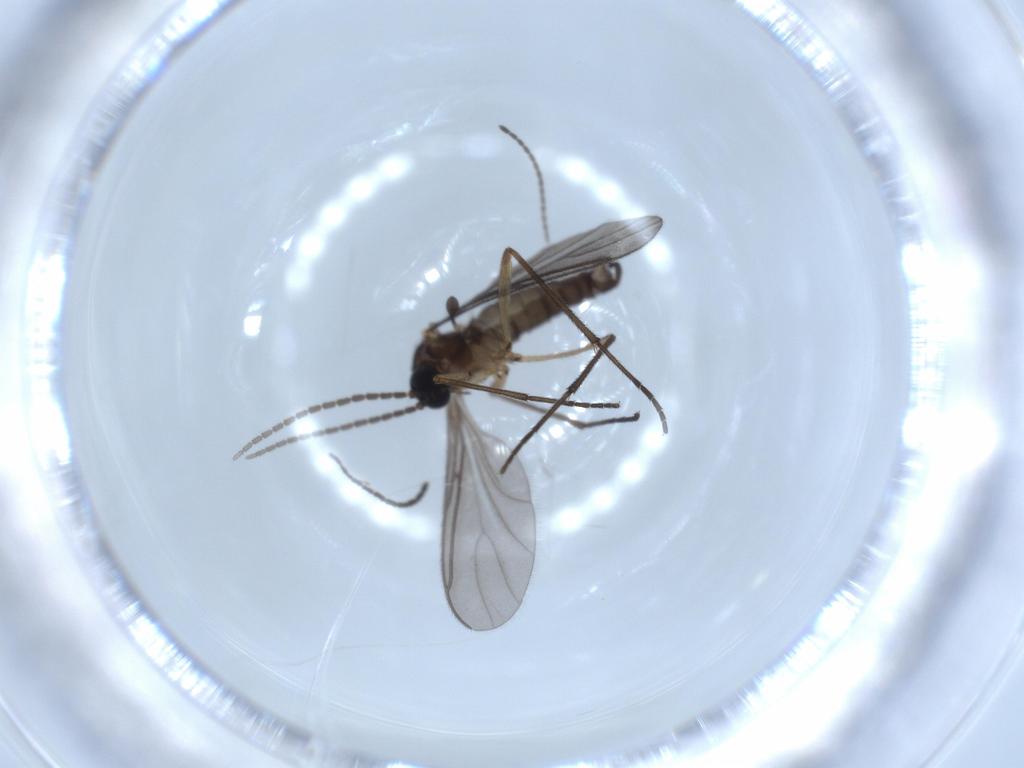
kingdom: Animalia
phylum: Arthropoda
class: Insecta
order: Diptera
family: Cecidomyiidae
